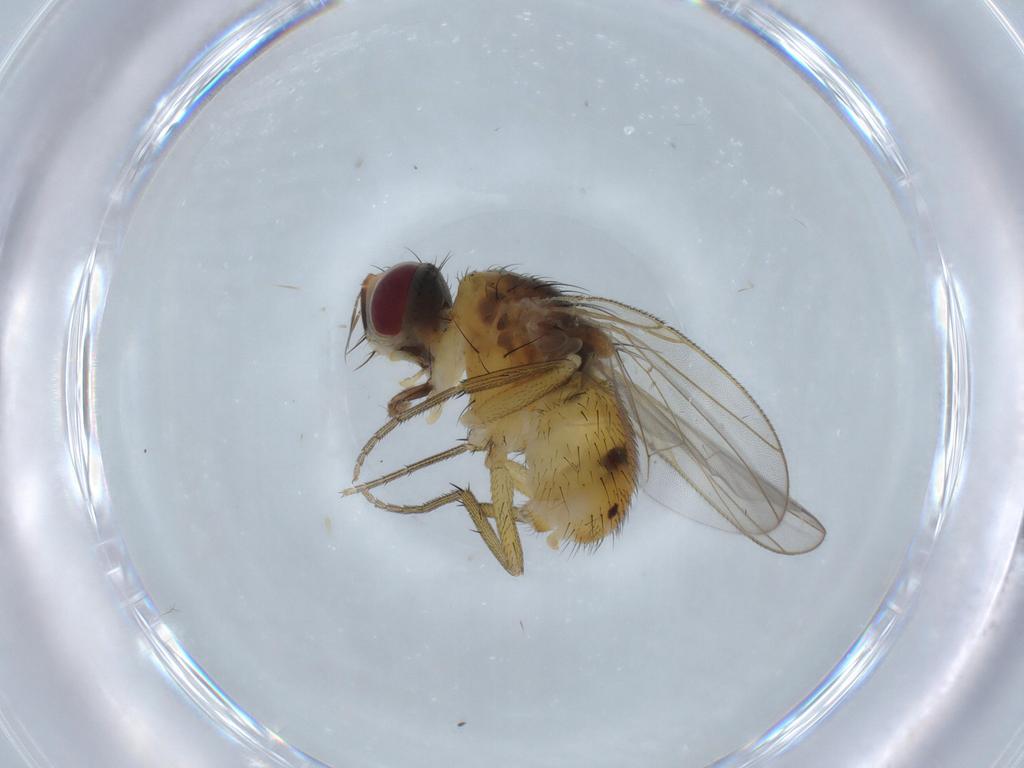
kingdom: Animalia
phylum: Arthropoda
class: Insecta
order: Diptera
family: Muscidae
